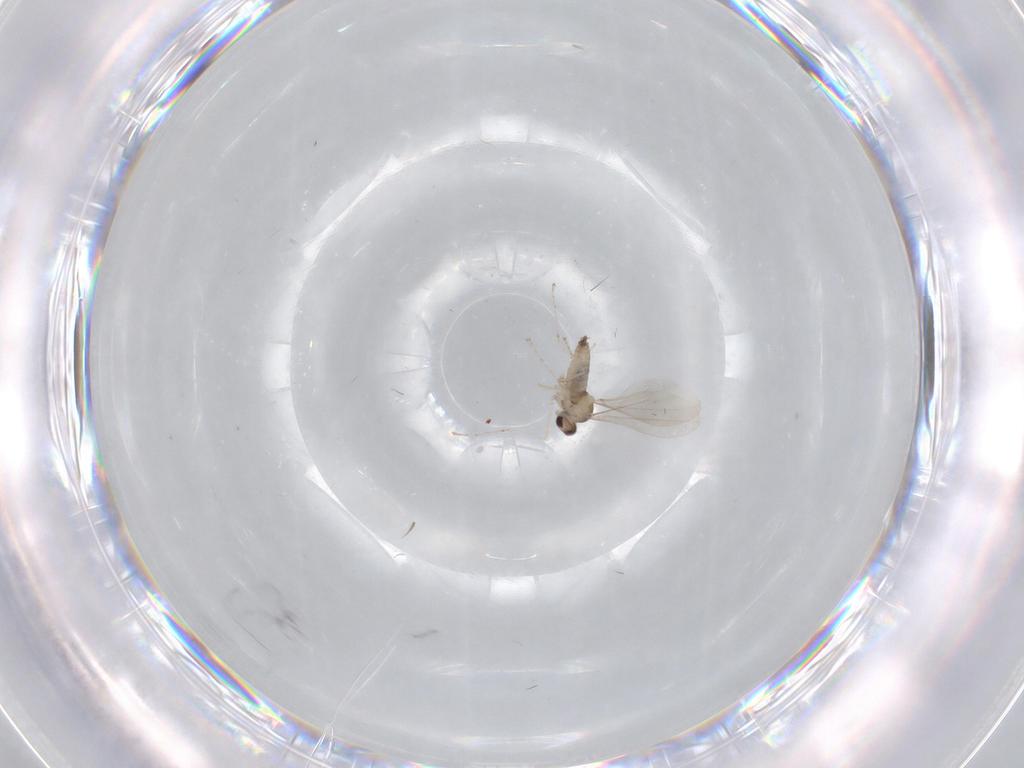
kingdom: Animalia
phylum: Arthropoda
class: Insecta
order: Diptera
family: Cecidomyiidae
